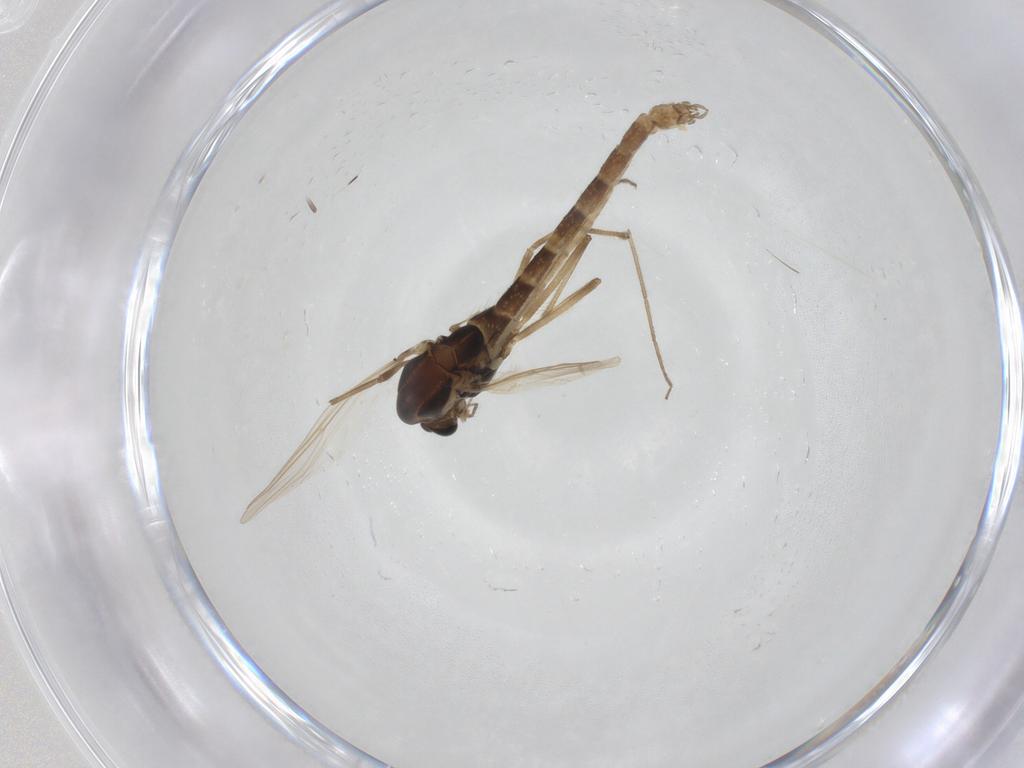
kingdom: Animalia
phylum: Arthropoda
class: Insecta
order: Diptera
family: Chironomidae
